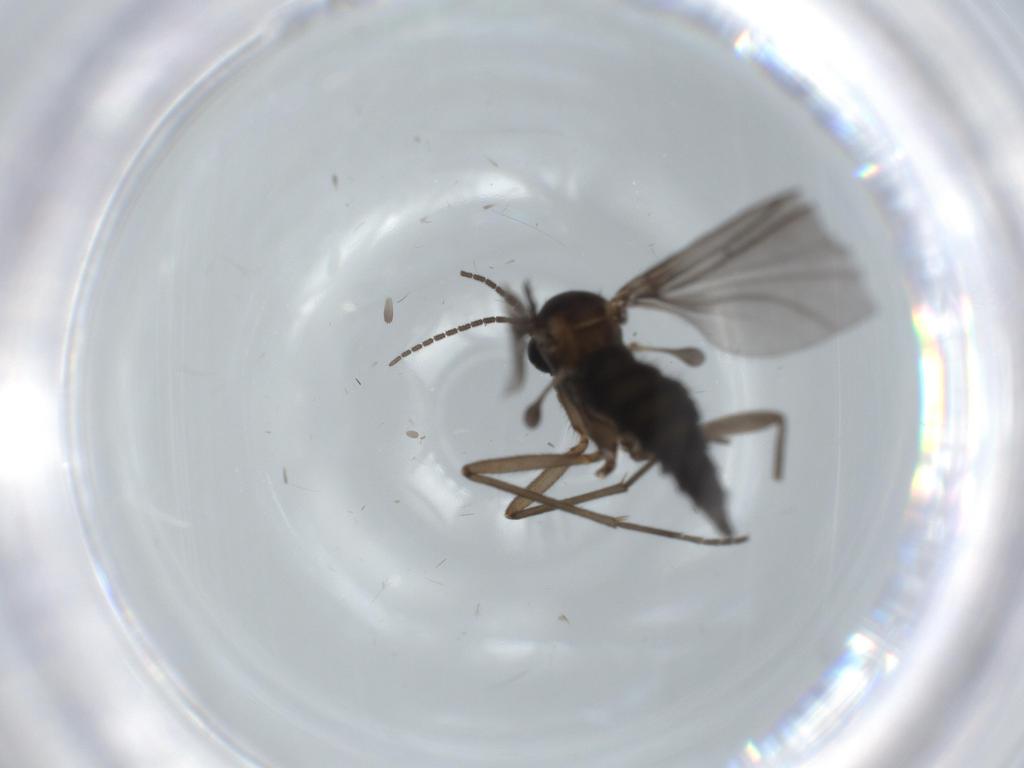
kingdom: Animalia
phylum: Arthropoda
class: Insecta
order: Diptera
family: Sciaridae
